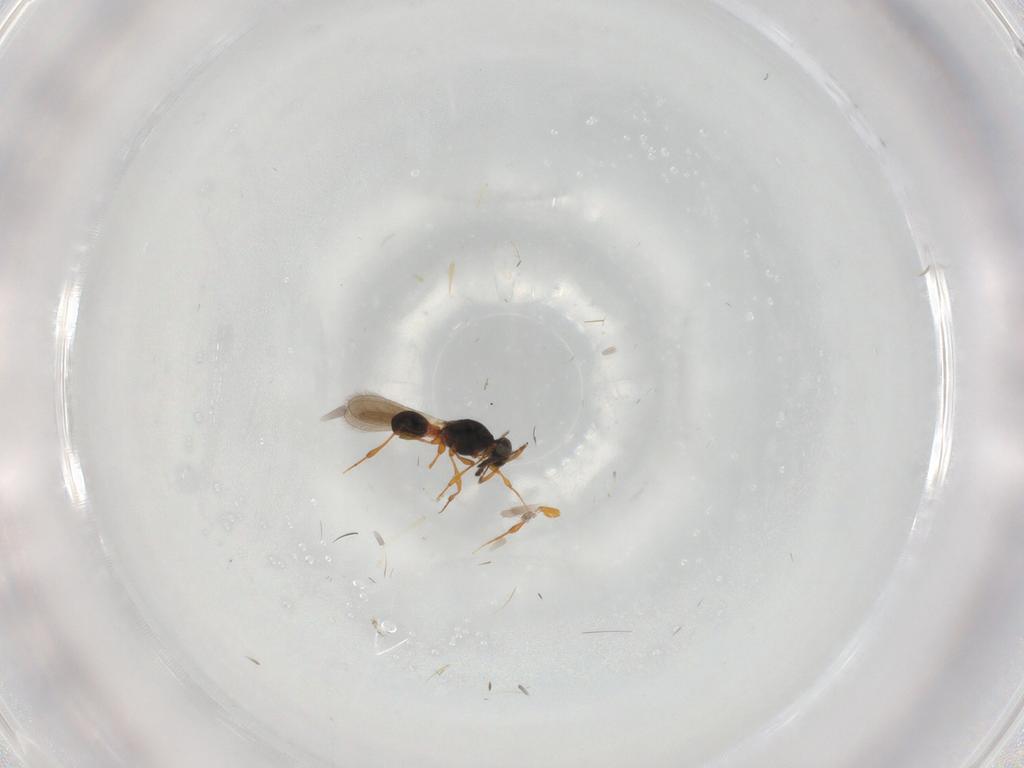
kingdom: Animalia
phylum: Arthropoda
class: Insecta
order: Hymenoptera
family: Platygastridae
